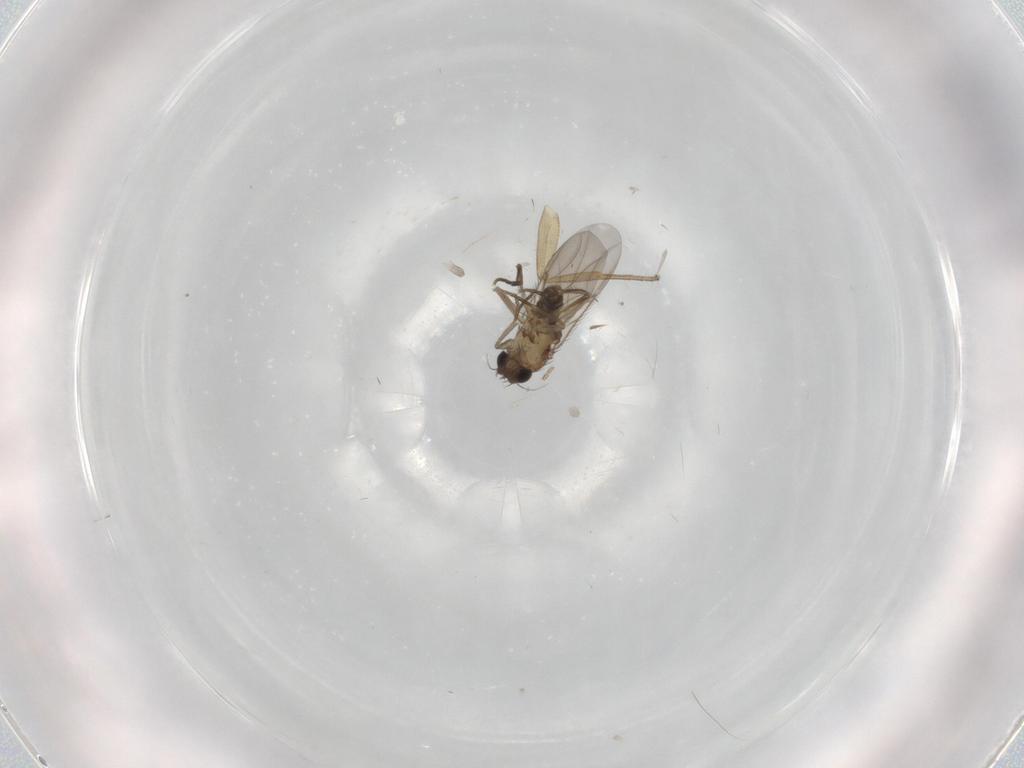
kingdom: Animalia
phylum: Arthropoda
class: Insecta
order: Diptera
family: Phoridae
